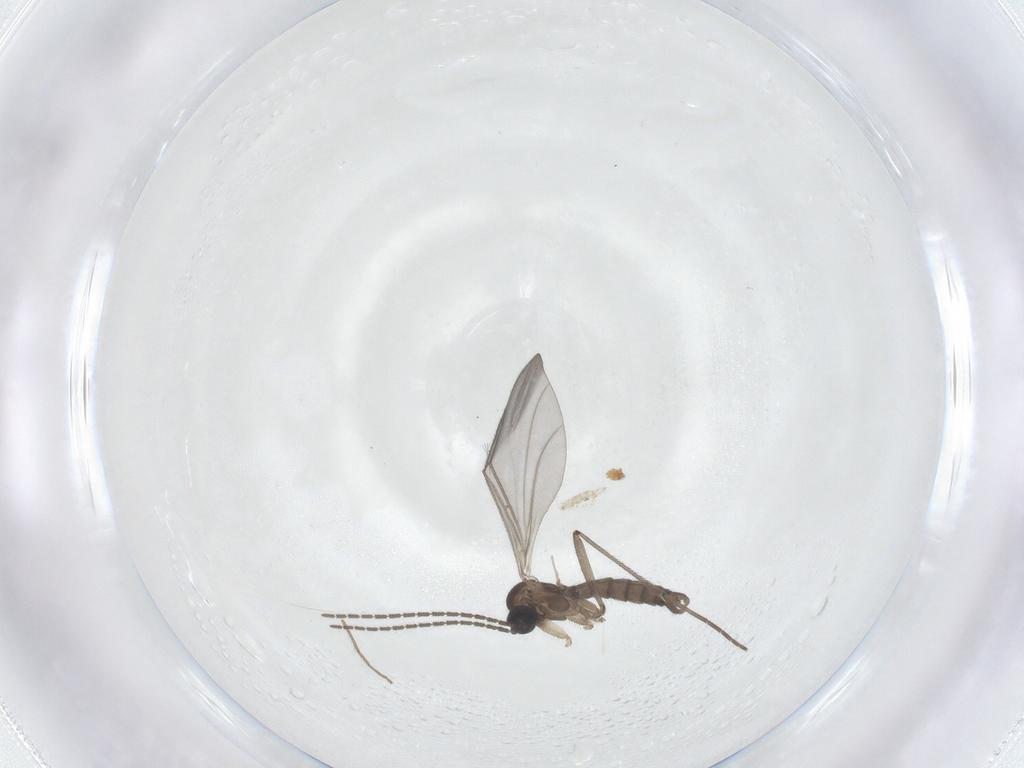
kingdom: Animalia
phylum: Arthropoda
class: Insecta
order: Diptera
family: Sciaridae
